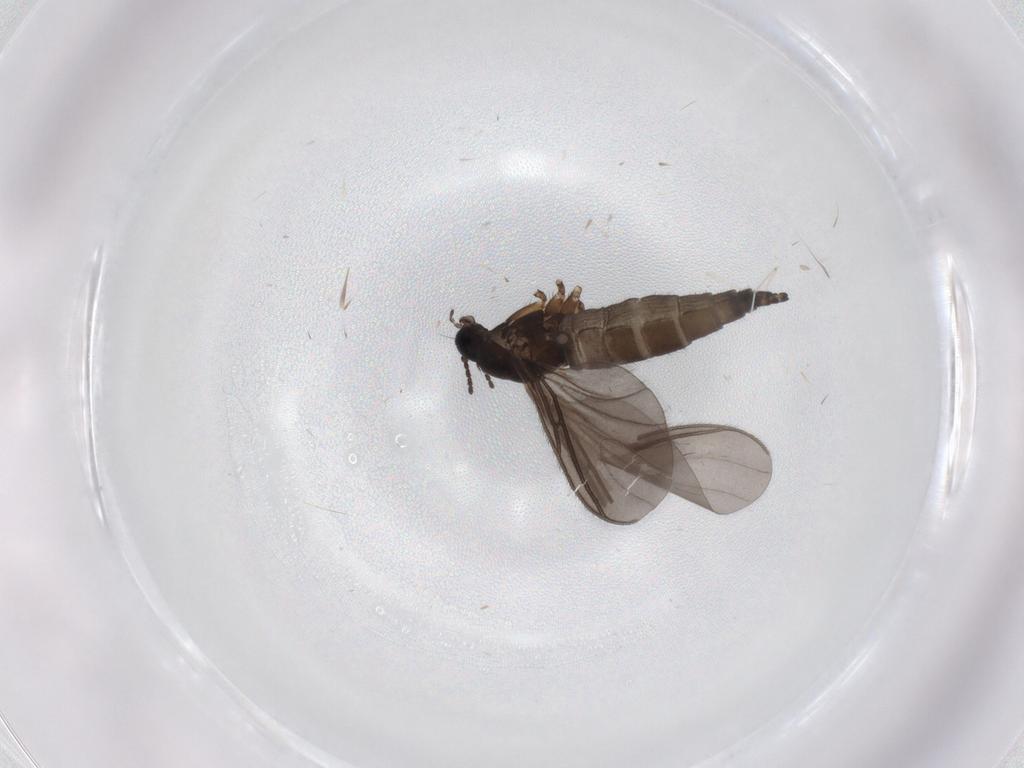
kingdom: Animalia
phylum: Arthropoda
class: Insecta
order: Diptera
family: Sciaridae
